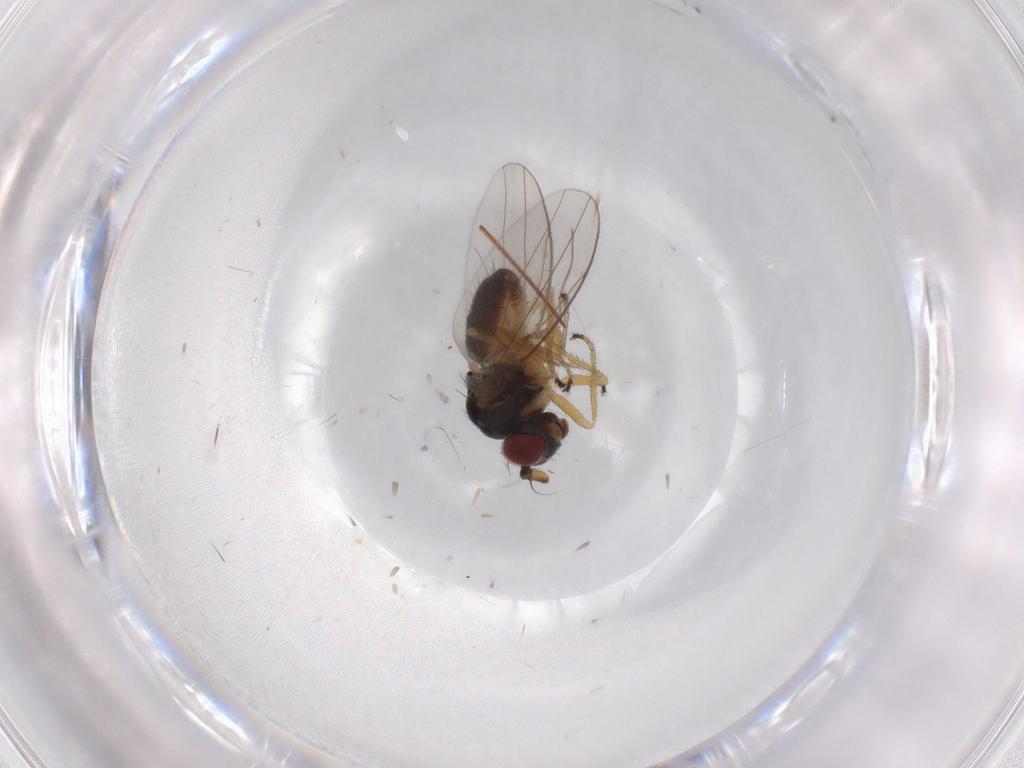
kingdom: Animalia
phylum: Arthropoda
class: Insecta
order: Diptera
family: Ephydridae
